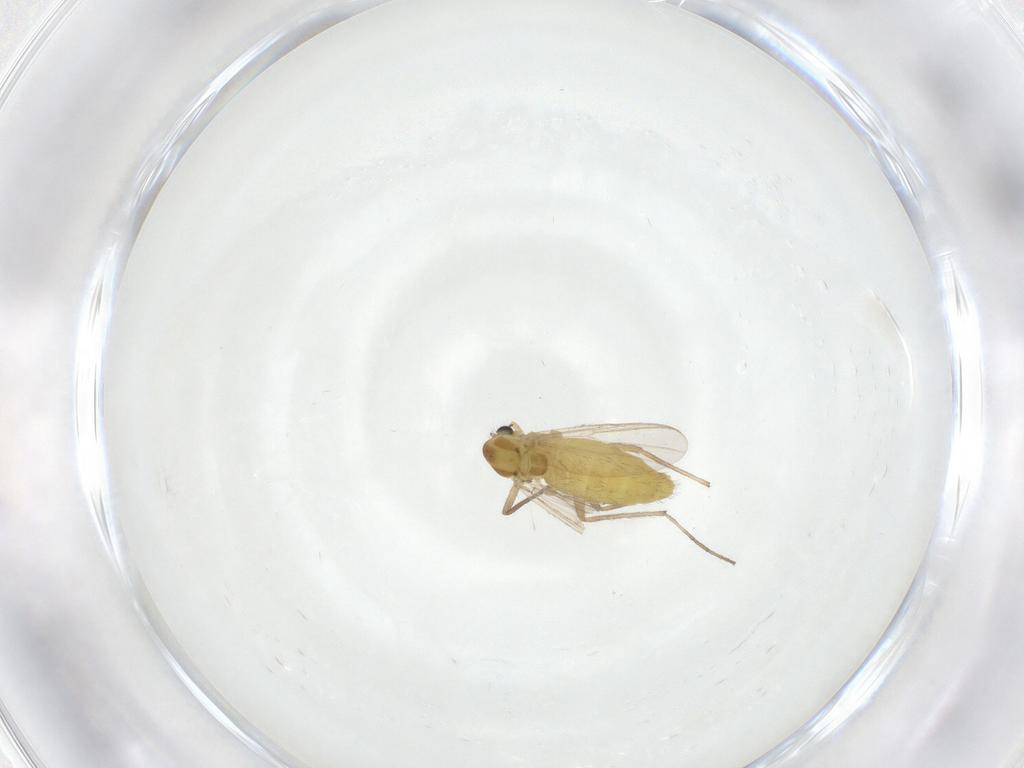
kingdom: Animalia
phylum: Arthropoda
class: Insecta
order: Diptera
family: Chironomidae
